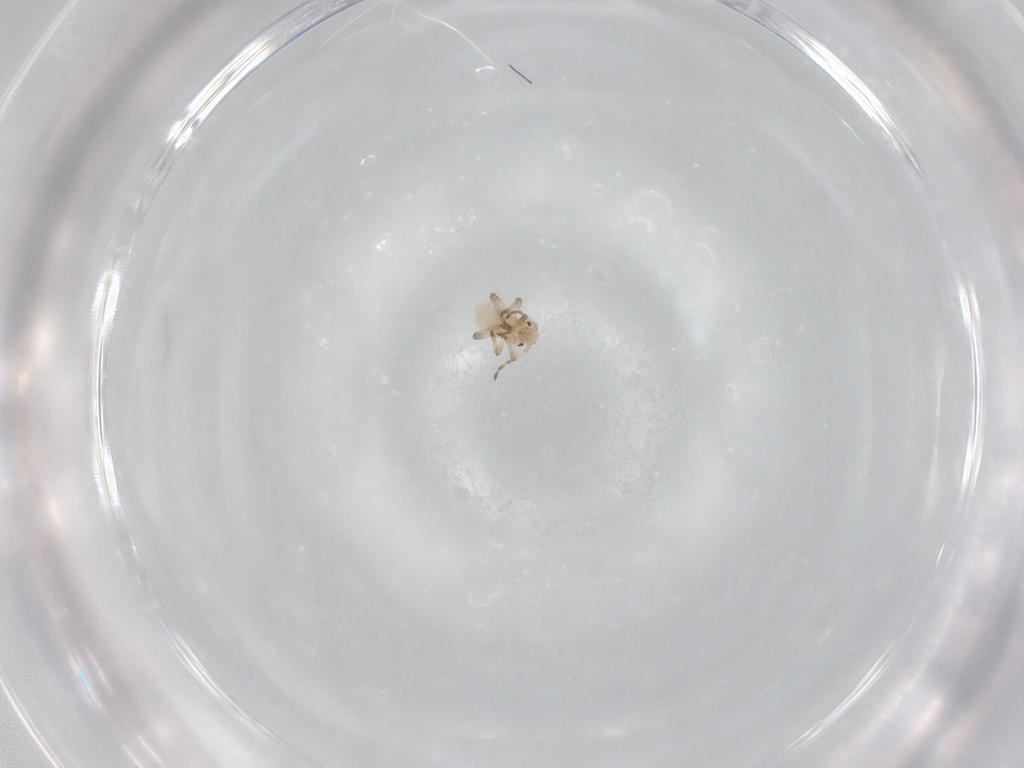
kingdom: Animalia
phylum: Arthropoda
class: Insecta
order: Hemiptera
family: Aphididae
